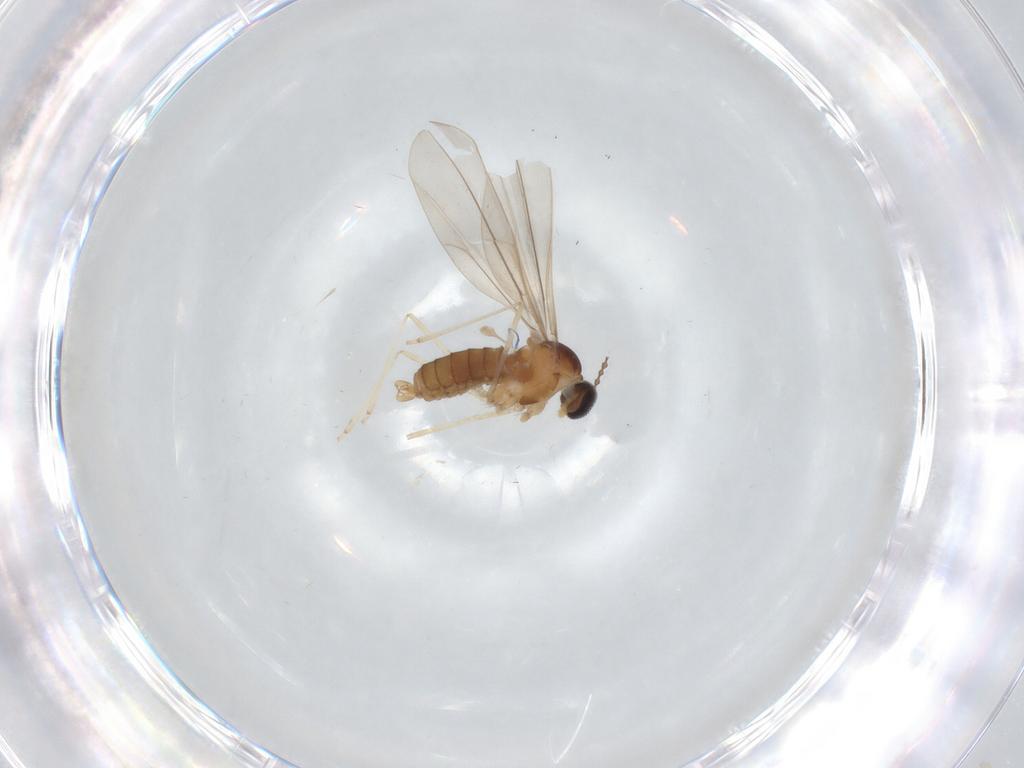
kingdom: Animalia
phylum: Arthropoda
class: Insecta
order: Diptera
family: Cecidomyiidae
